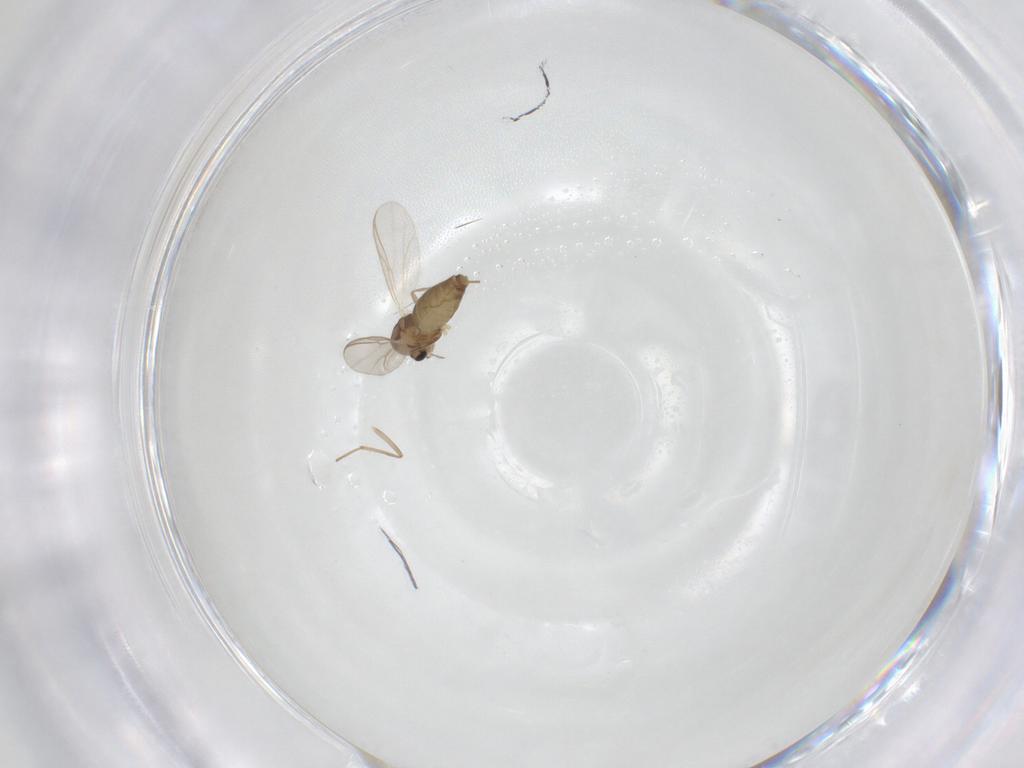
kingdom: Animalia
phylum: Arthropoda
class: Insecta
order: Diptera
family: Chironomidae
